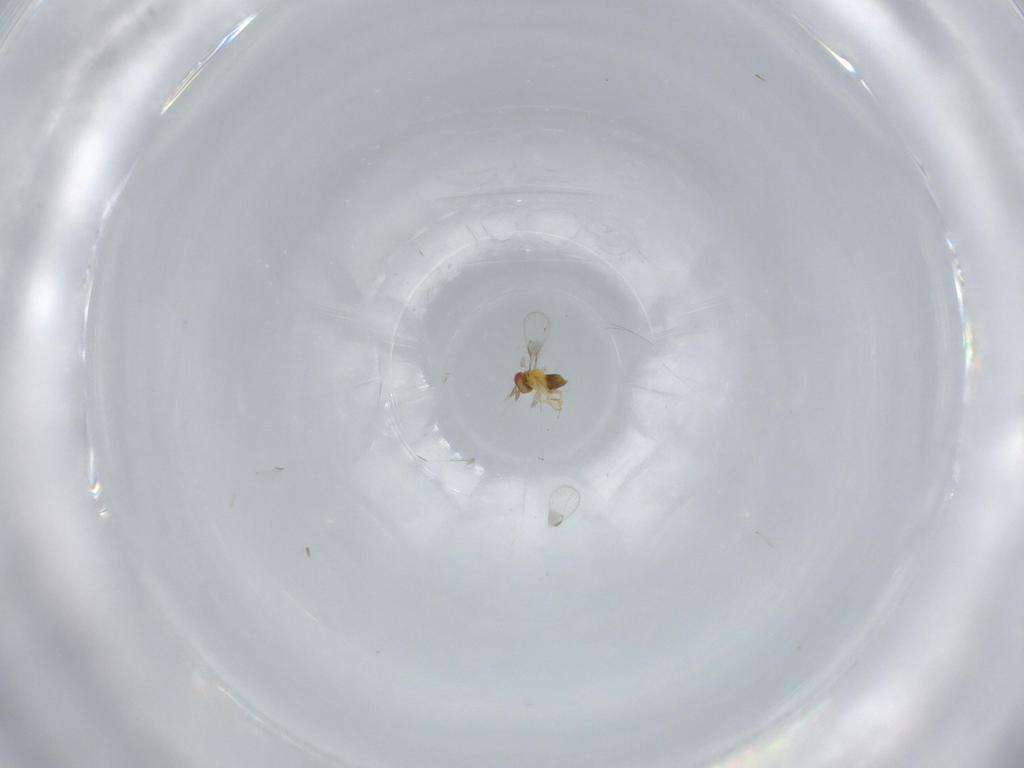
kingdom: Animalia
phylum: Arthropoda
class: Insecta
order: Hymenoptera
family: Trichogrammatidae
